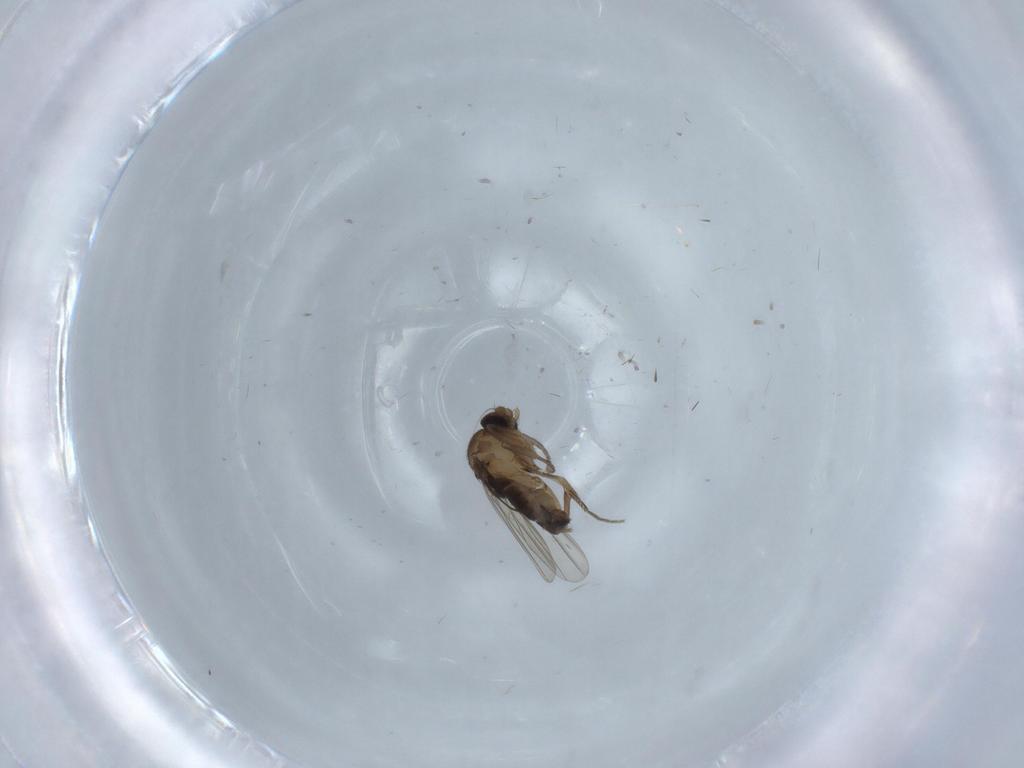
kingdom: Animalia
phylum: Arthropoda
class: Insecta
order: Diptera
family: Phoridae
